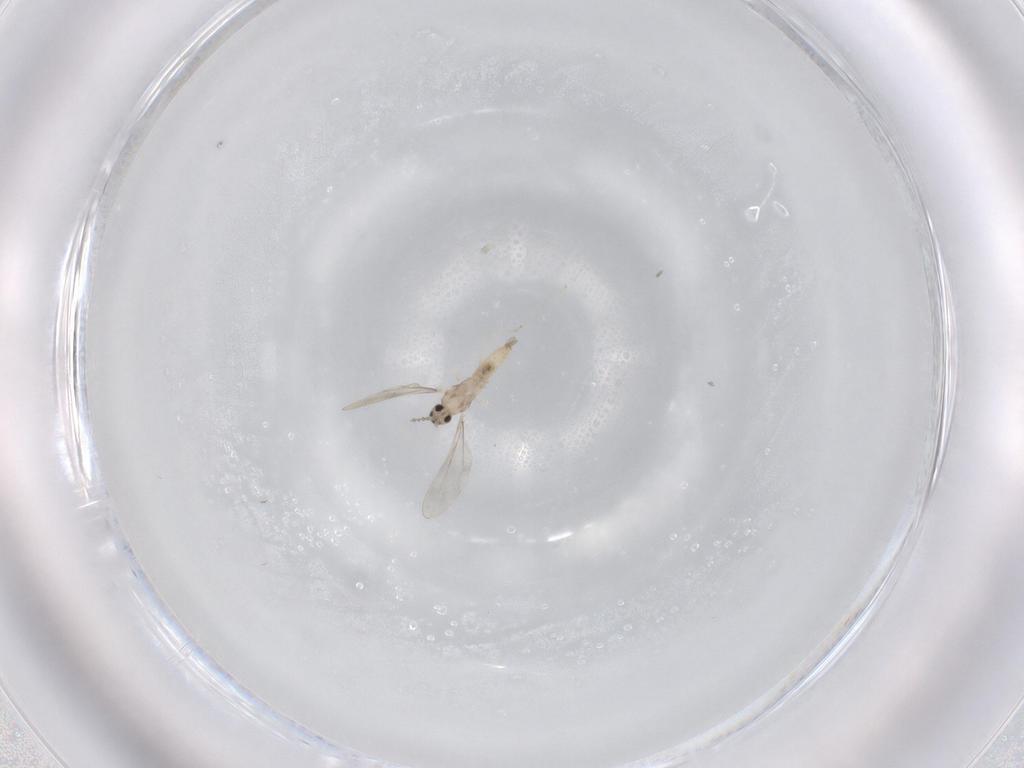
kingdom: Animalia
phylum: Arthropoda
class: Insecta
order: Diptera
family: Cecidomyiidae
